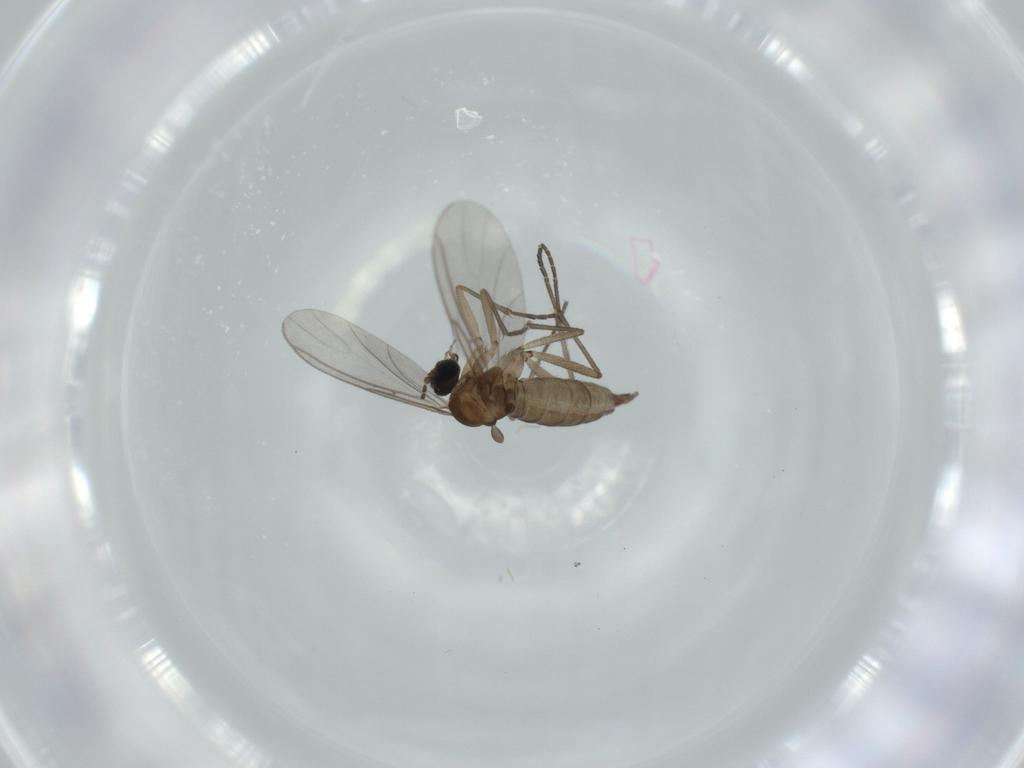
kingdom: Animalia
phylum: Arthropoda
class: Insecta
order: Diptera
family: Sciaridae
